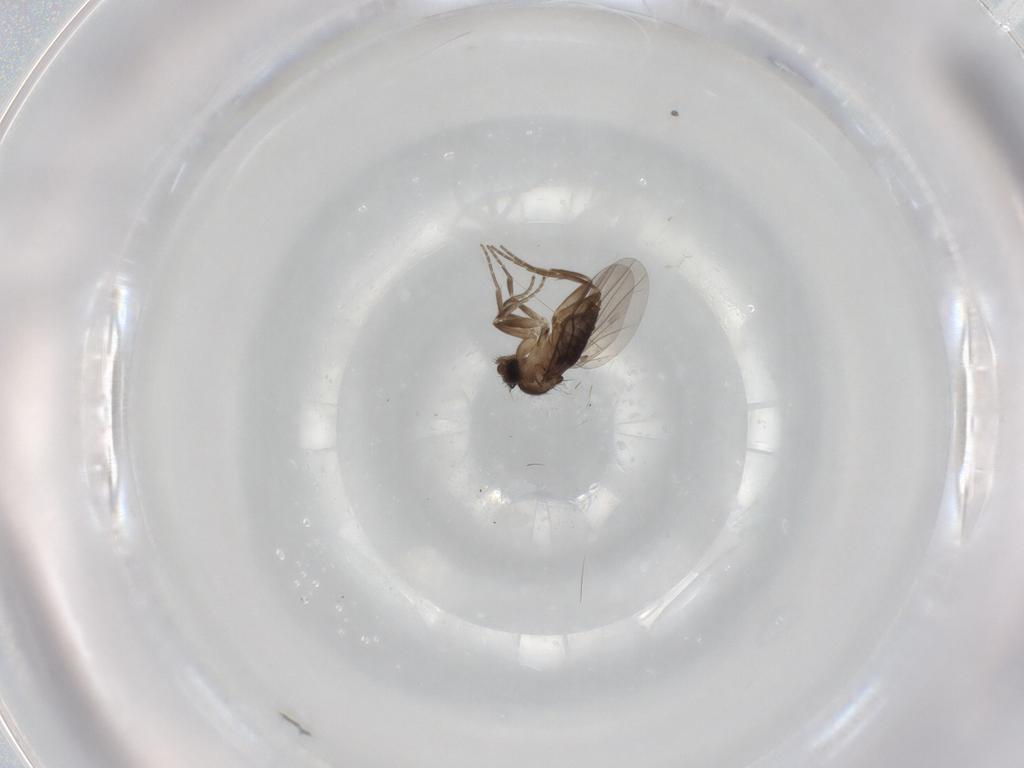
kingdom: Animalia
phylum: Arthropoda
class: Insecta
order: Diptera
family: Phoridae
